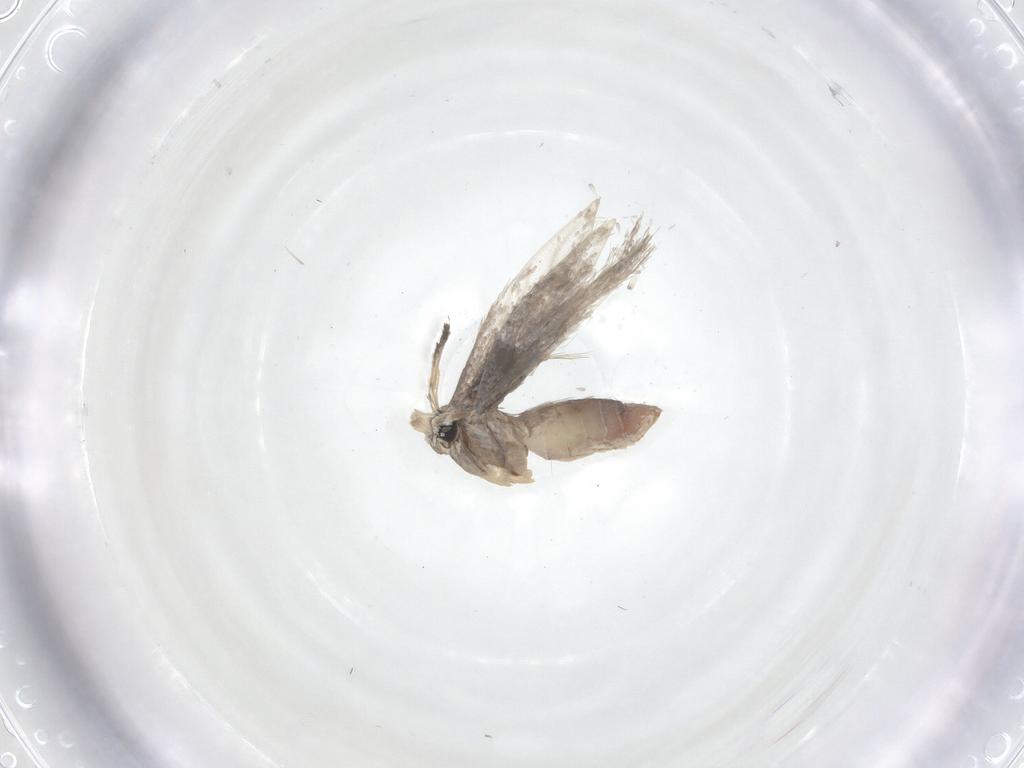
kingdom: Animalia
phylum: Arthropoda
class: Insecta
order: Lepidoptera
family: Nepticulidae
